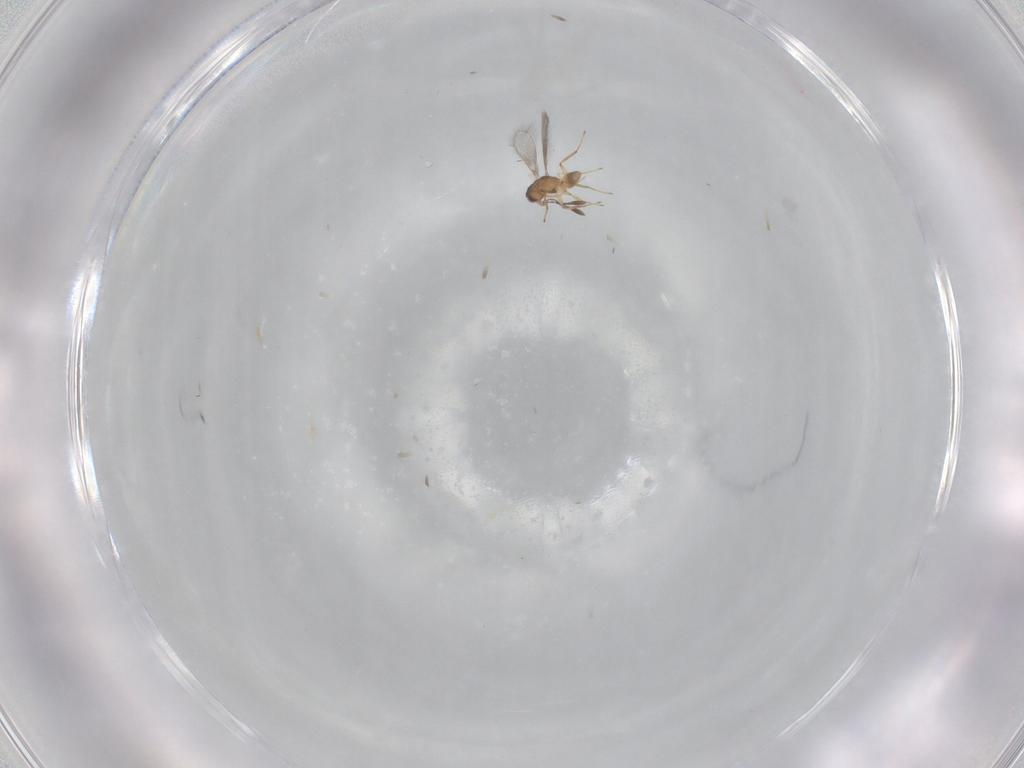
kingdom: Animalia
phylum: Arthropoda
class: Insecta
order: Hymenoptera
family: Mymaridae
